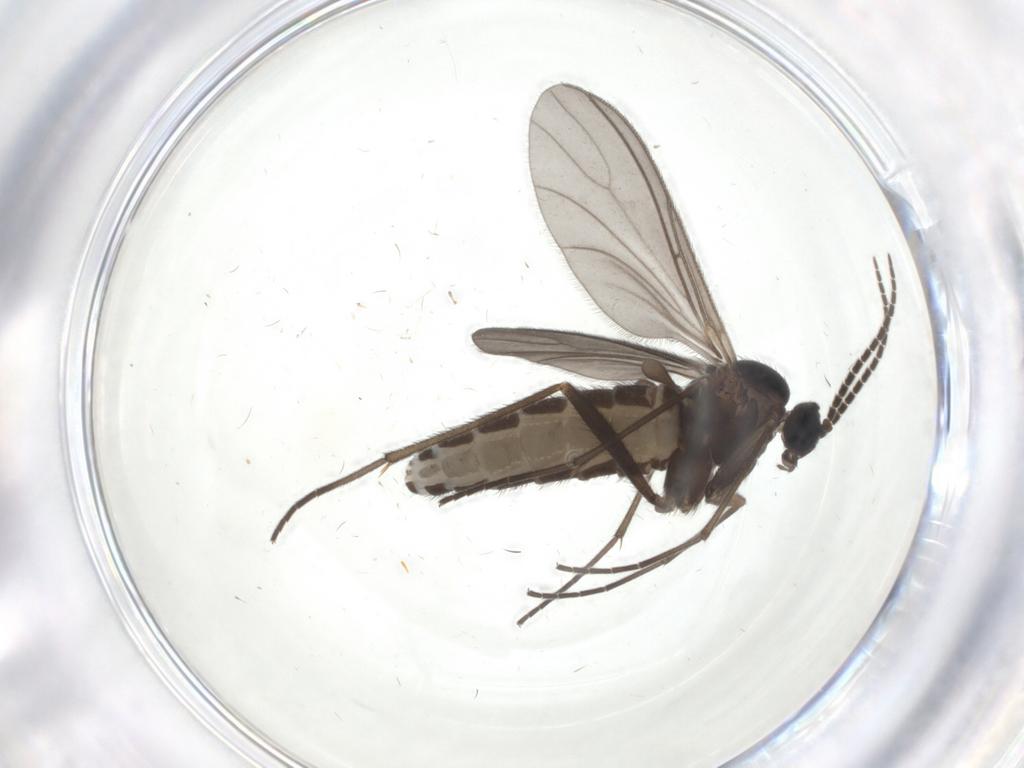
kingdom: Animalia
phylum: Arthropoda
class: Insecta
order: Diptera
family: Sciaridae
